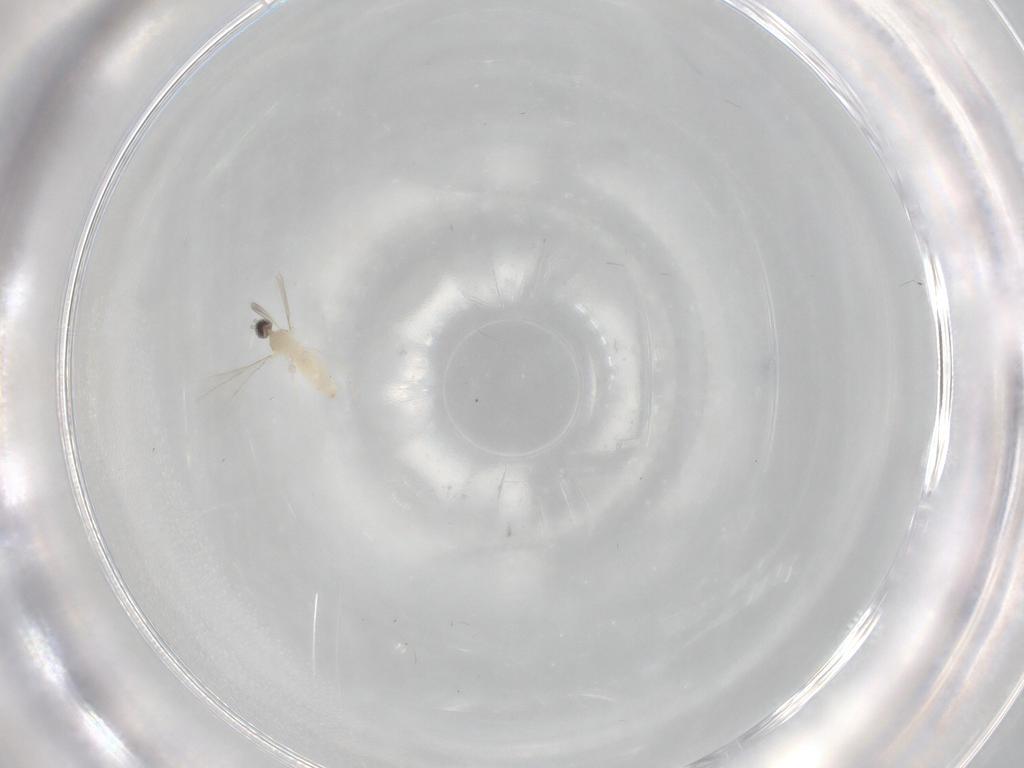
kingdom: Animalia
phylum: Arthropoda
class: Insecta
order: Diptera
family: Cecidomyiidae
